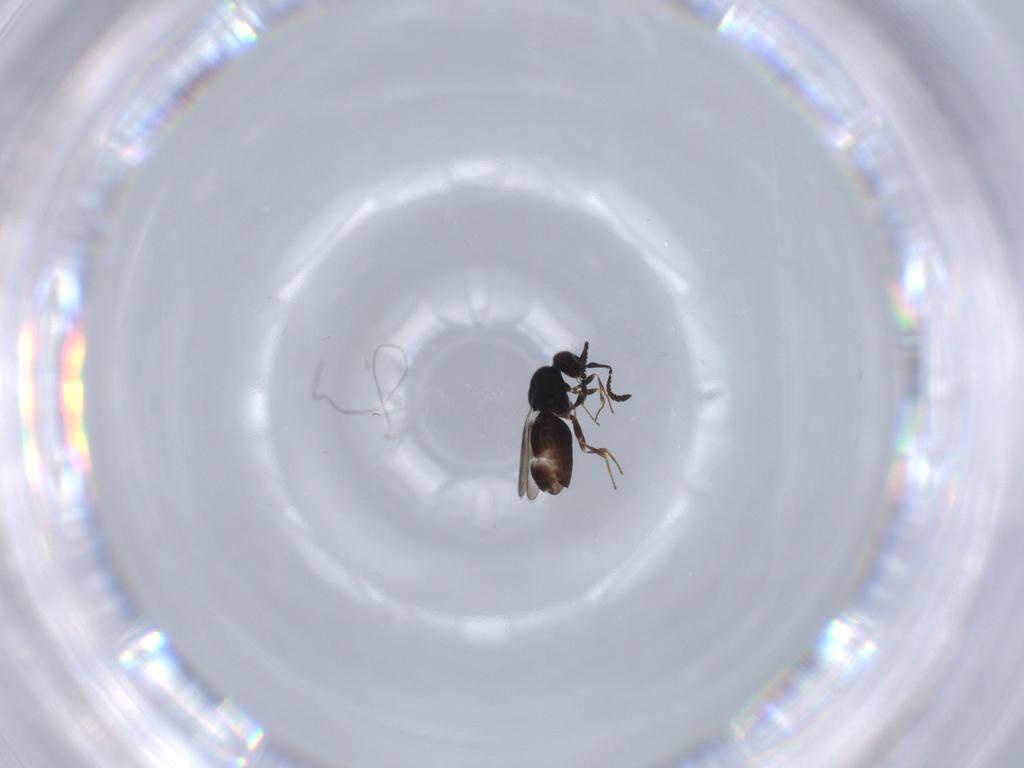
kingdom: Animalia
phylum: Arthropoda
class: Insecta
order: Hymenoptera
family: Ceraphronidae
